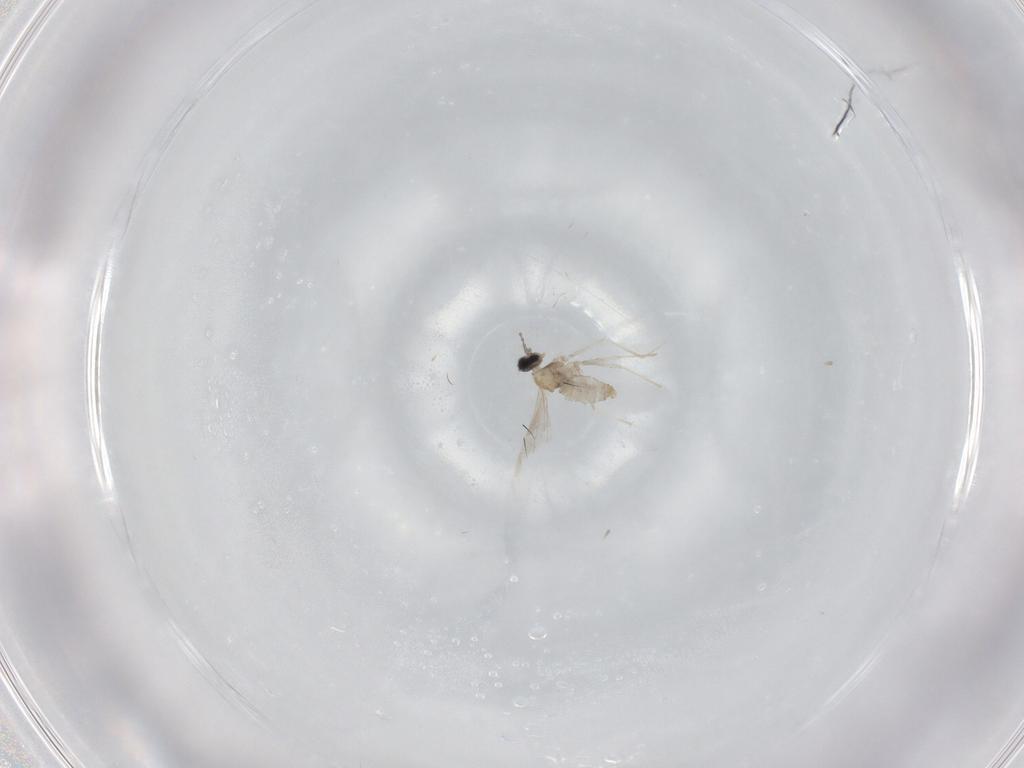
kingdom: Animalia
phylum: Arthropoda
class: Insecta
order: Diptera
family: Cecidomyiidae
